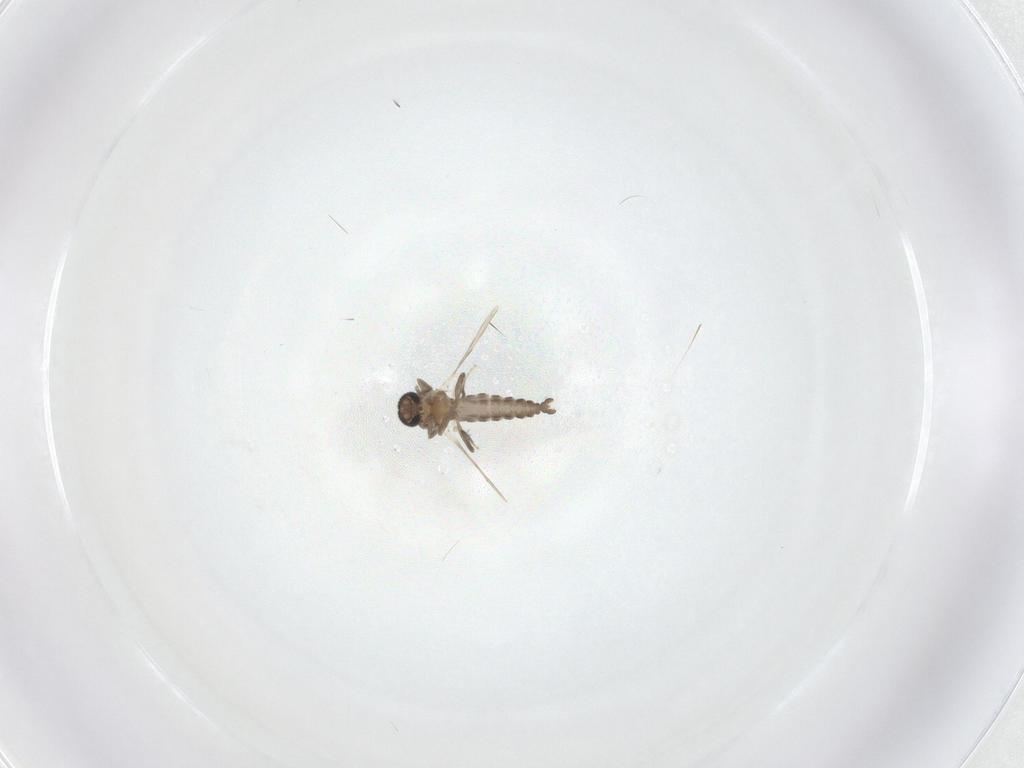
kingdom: Animalia
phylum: Arthropoda
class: Insecta
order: Diptera
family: Ceratopogonidae
